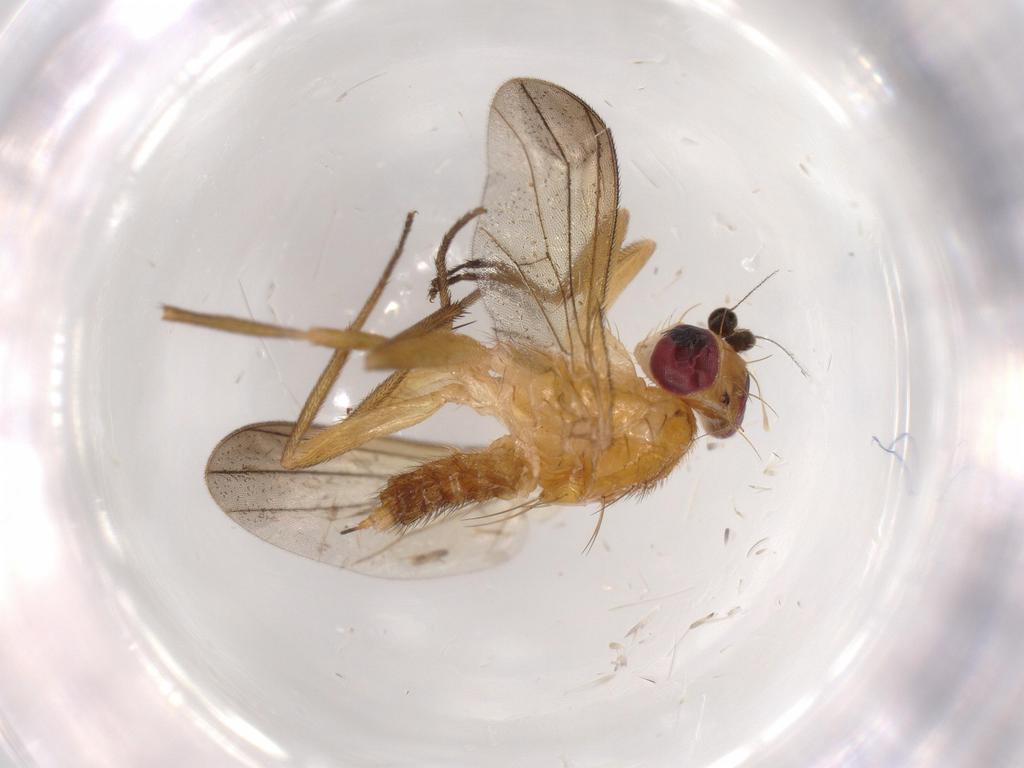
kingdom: Animalia
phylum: Arthropoda
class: Insecta
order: Diptera
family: Clusiidae
